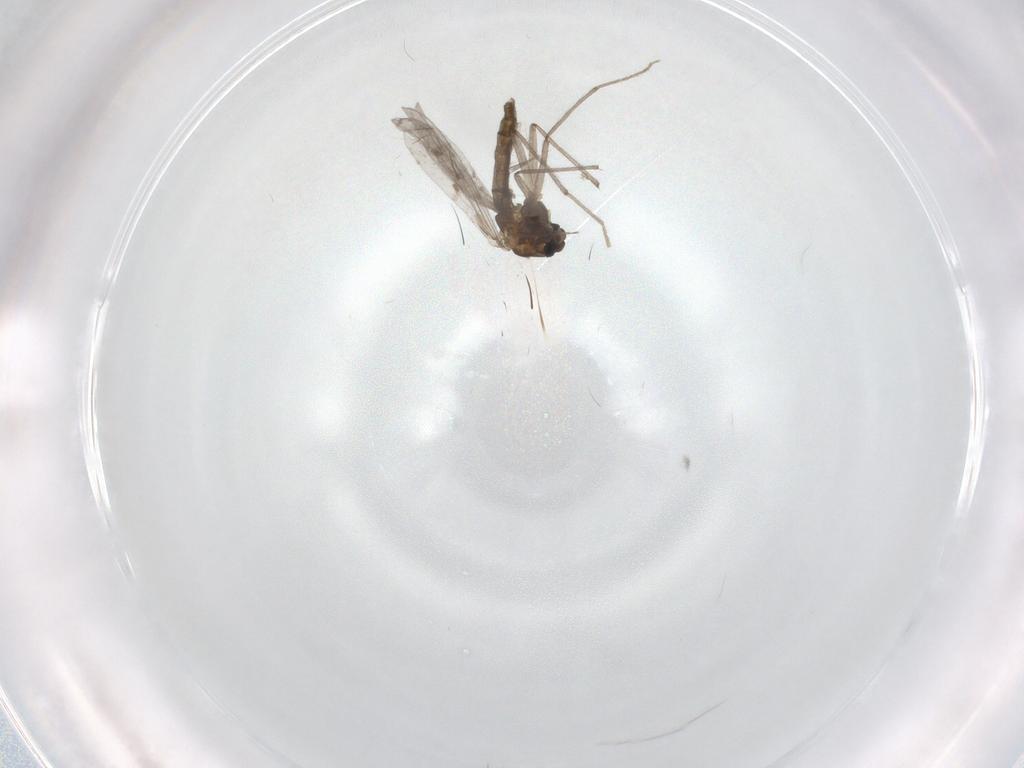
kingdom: Animalia
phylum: Arthropoda
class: Insecta
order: Diptera
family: Chironomidae
